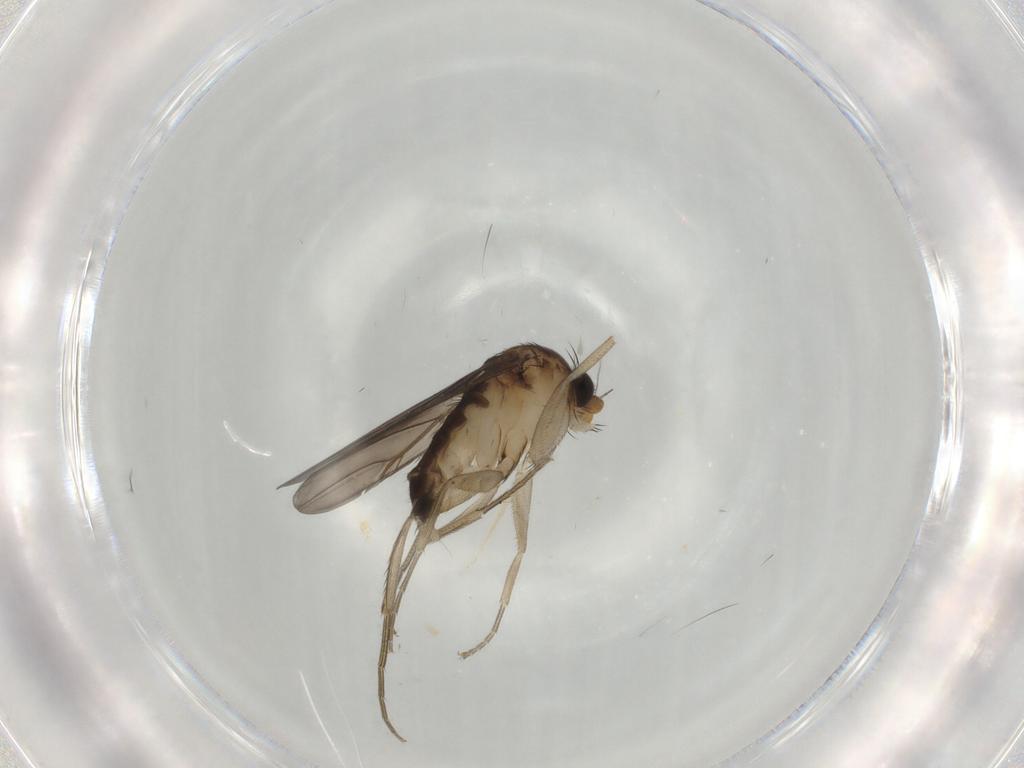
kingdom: Animalia
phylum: Arthropoda
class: Insecta
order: Diptera
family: Phoridae
